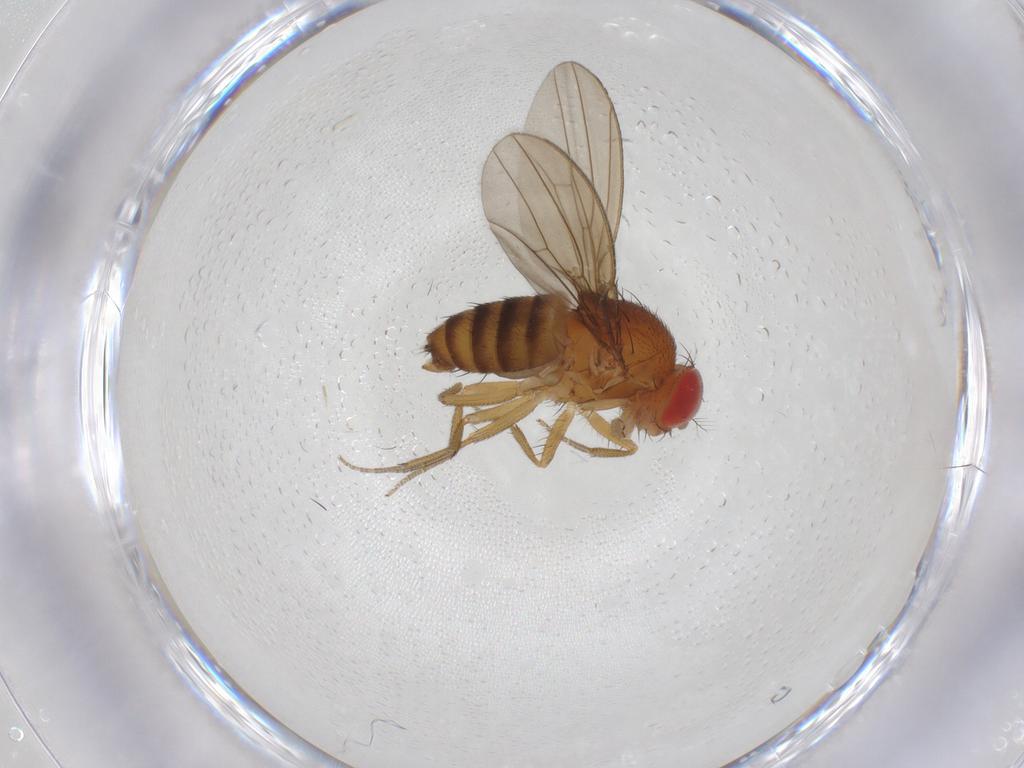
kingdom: Animalia
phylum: Arthropoda
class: Insecta
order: Diptera
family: Drosophilidae
